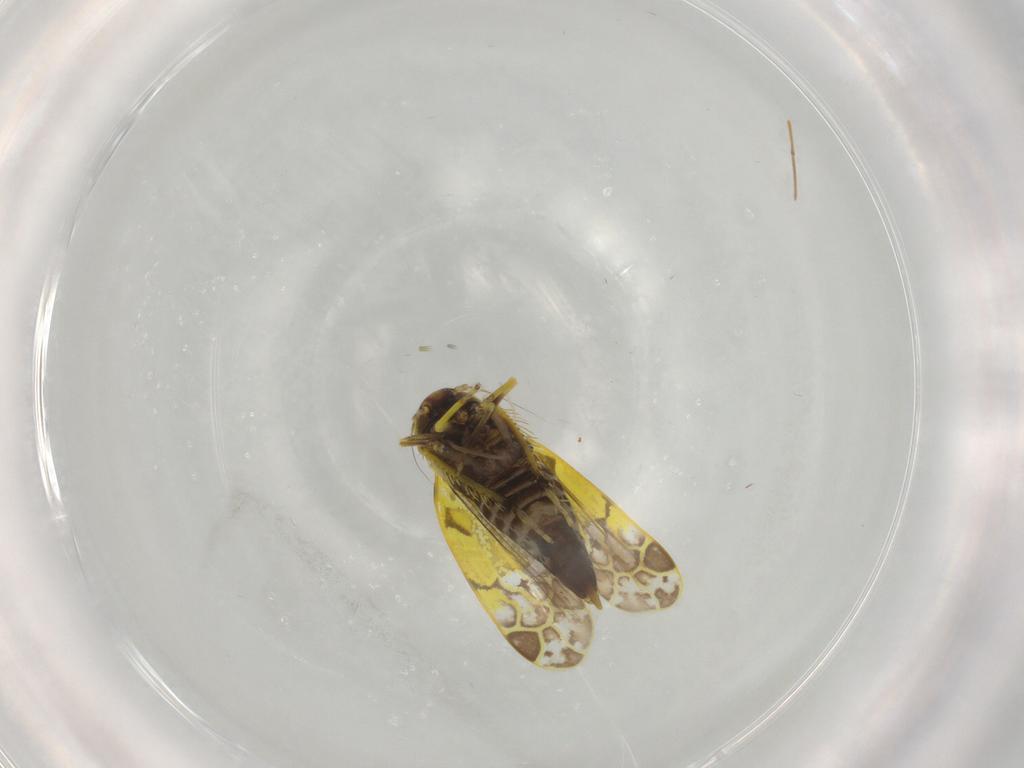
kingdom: Animalia
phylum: Arthropoda
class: Insecta
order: Hemiptera
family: Cicadellidae
